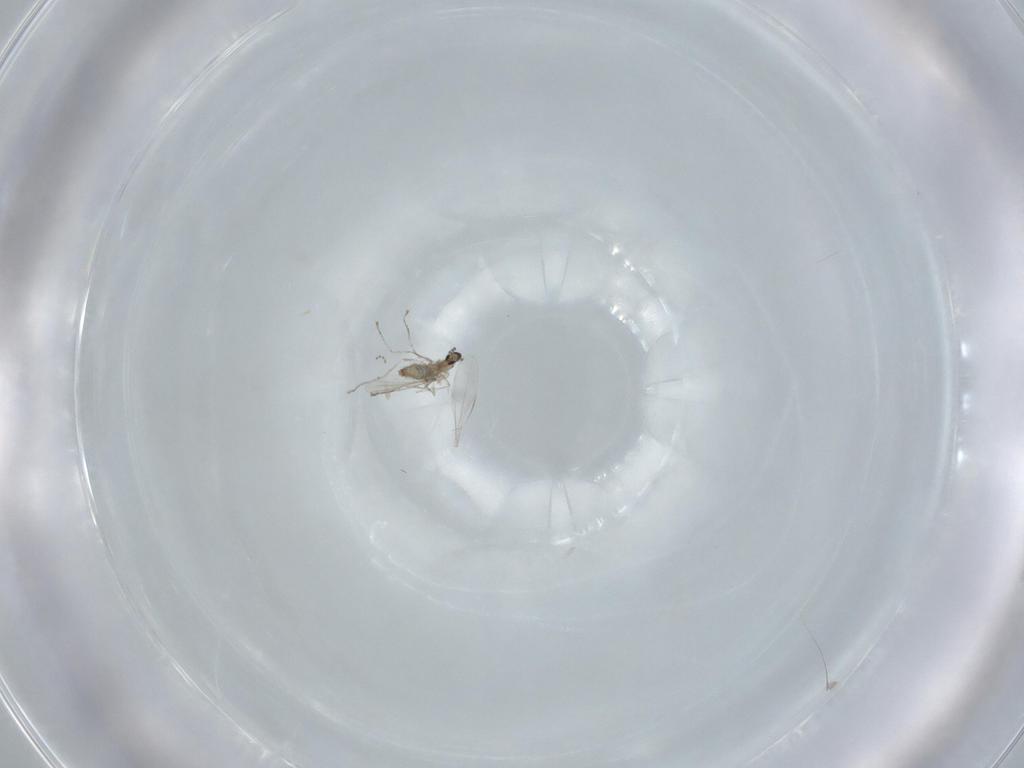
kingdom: Animalia
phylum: Arthropoda
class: Insecta
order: Diptera
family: Cecidomyiidae
